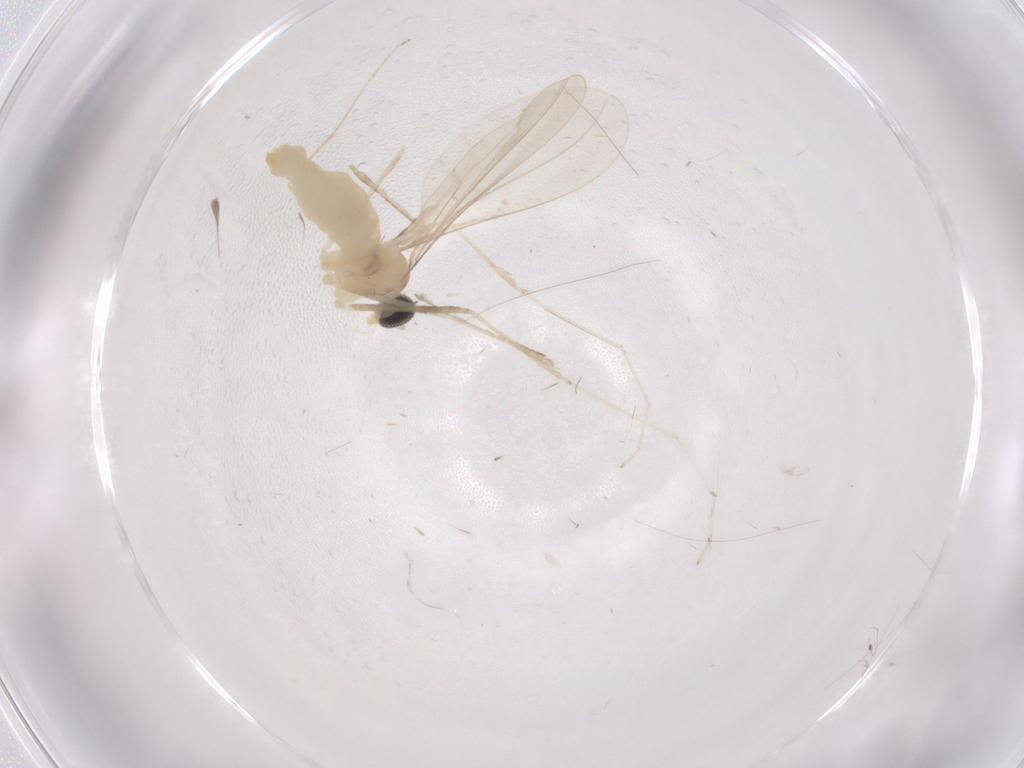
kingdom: Animalia
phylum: Arthropoda
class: Insecta
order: Diptera
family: Cecidomyiidae
